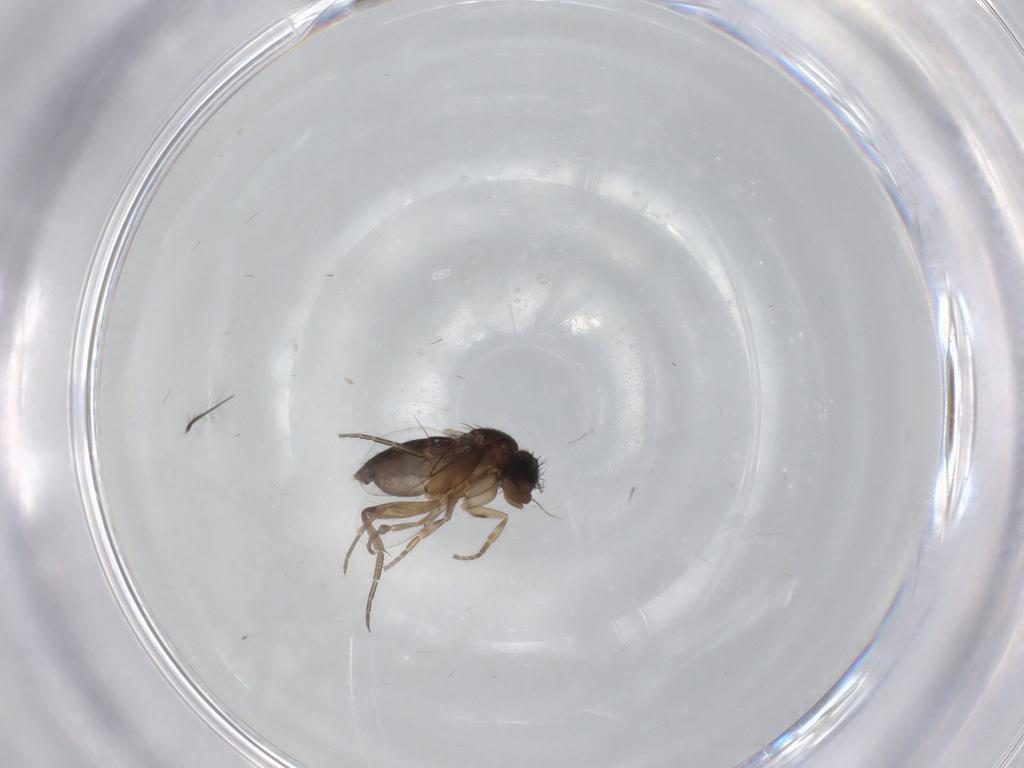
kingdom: Animalia
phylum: Arthropoda
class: Insecta
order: Diptera
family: Phoridae
